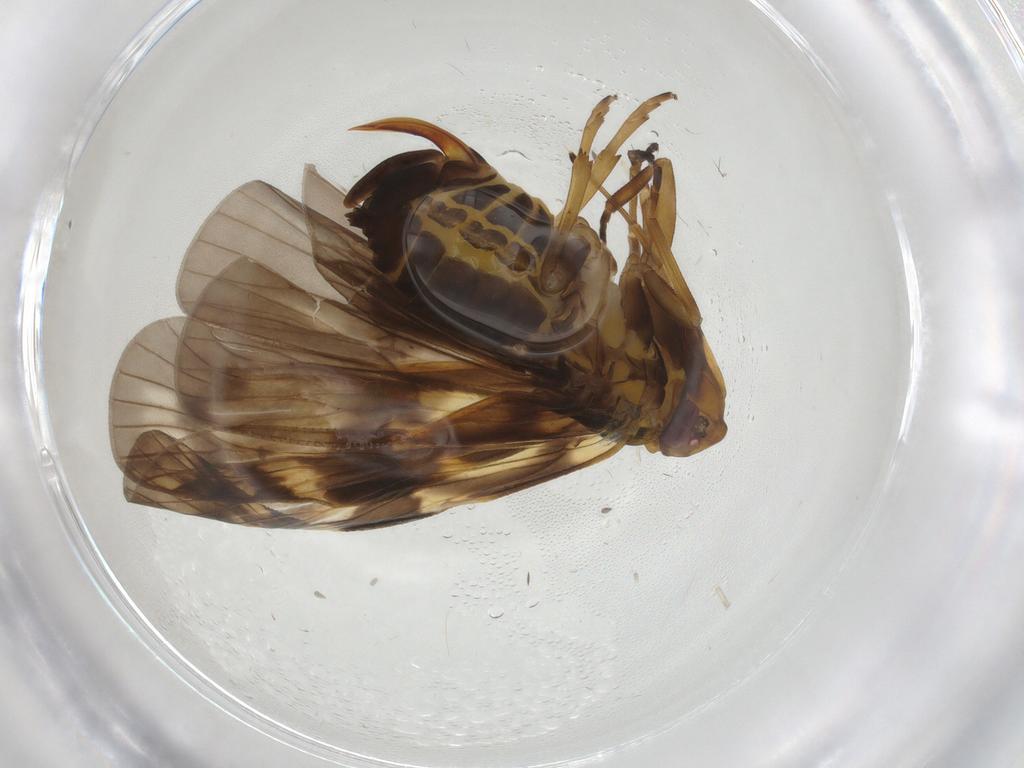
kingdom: Animalia
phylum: Arthropoda
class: Insecta
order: Hemiptera
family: Cixiidae
